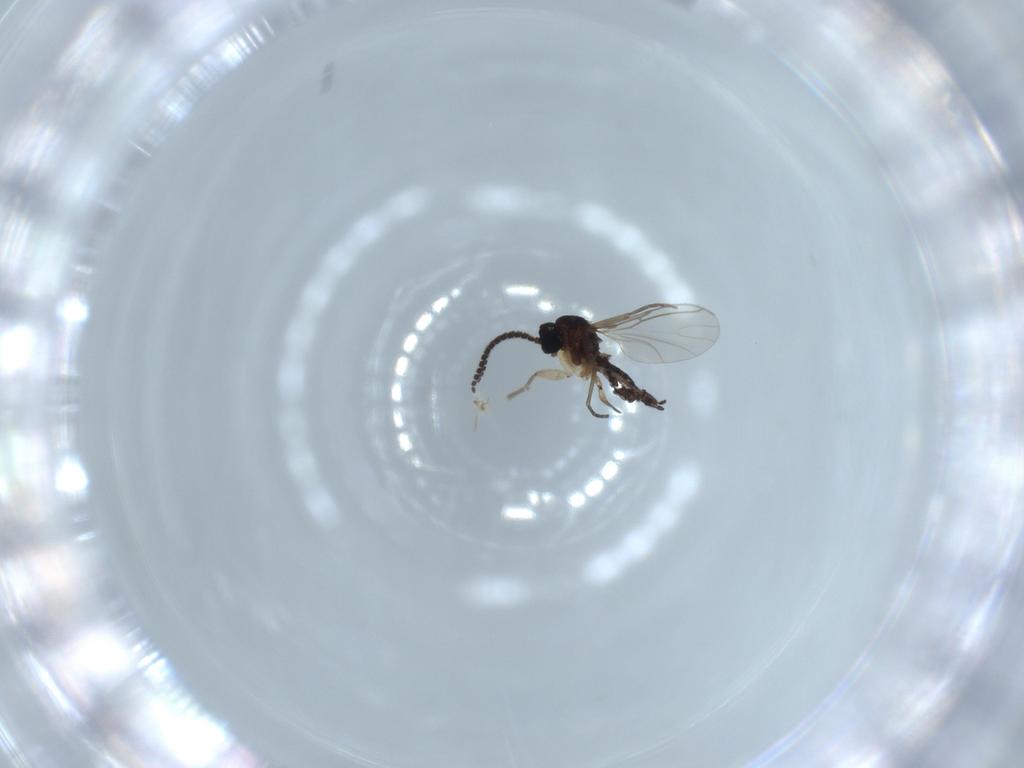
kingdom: Animalia
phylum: Arthropoda
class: Insecta
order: Diptera
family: Sciaridae
